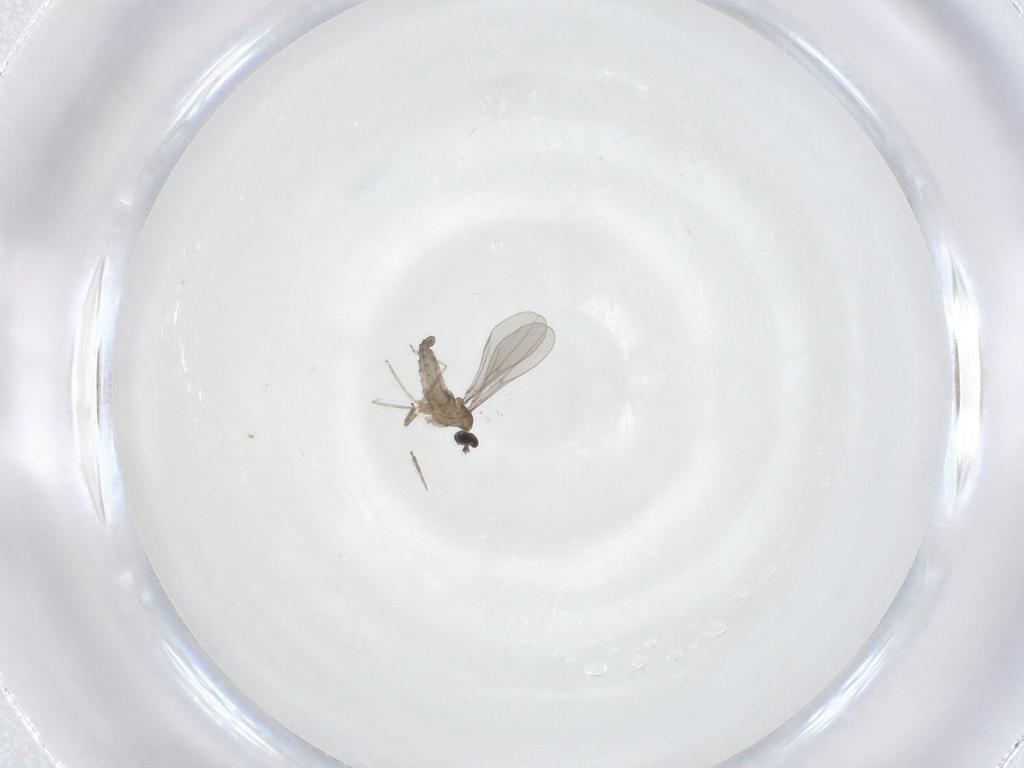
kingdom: Animalia
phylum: Arthropoda
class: Insecta
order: Diptera
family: Cecidomyiidae
